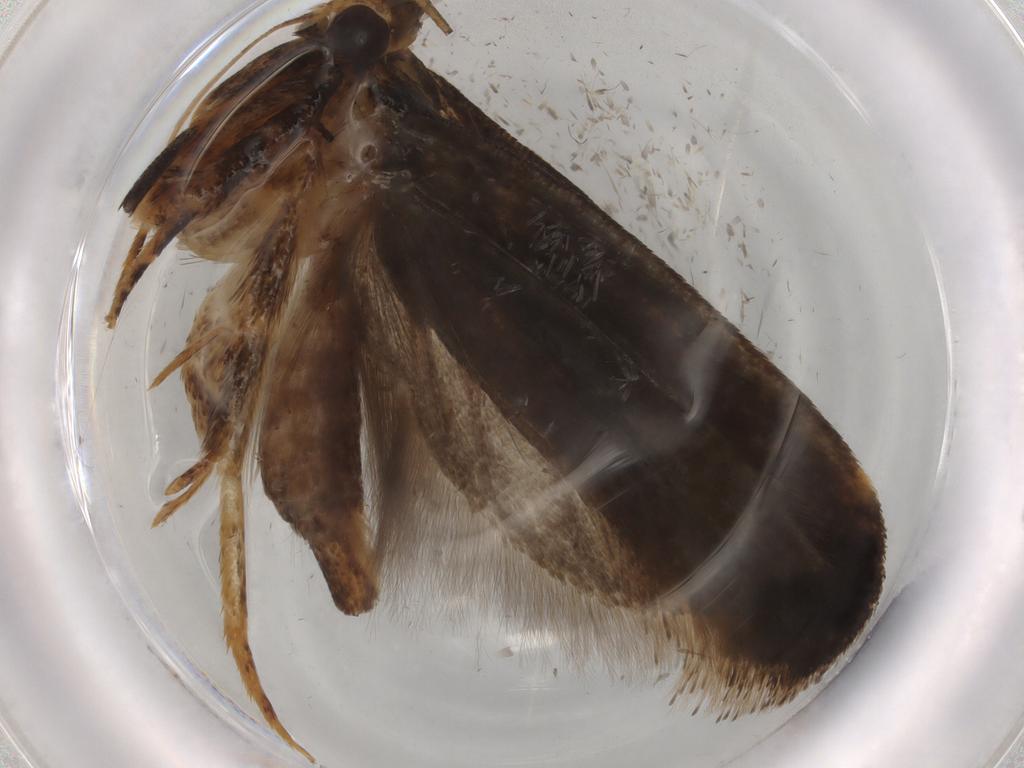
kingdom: Animalia
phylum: Arthropoda
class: Insecta
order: Lepidoptera
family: Gelechiidae
